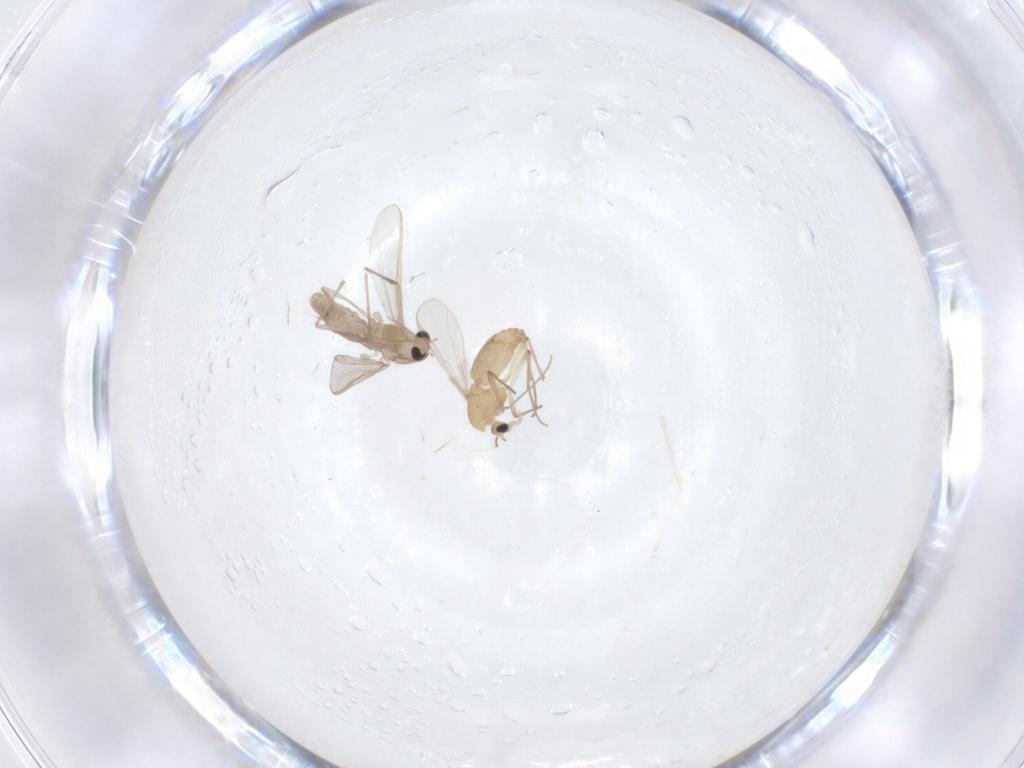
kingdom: Animalia
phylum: Arthropoda
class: Insecta
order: Diptera
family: Chironomidae
